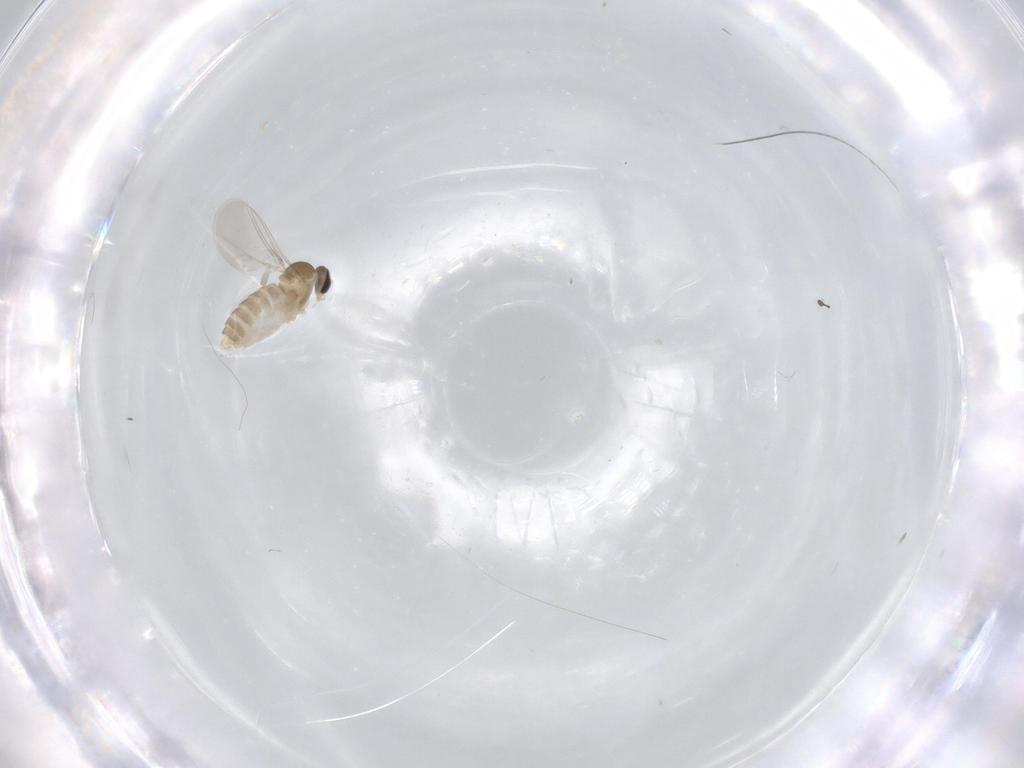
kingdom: Animalia
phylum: Arthropoda
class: Insecta
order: Diptera
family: Cecidomyiidae
